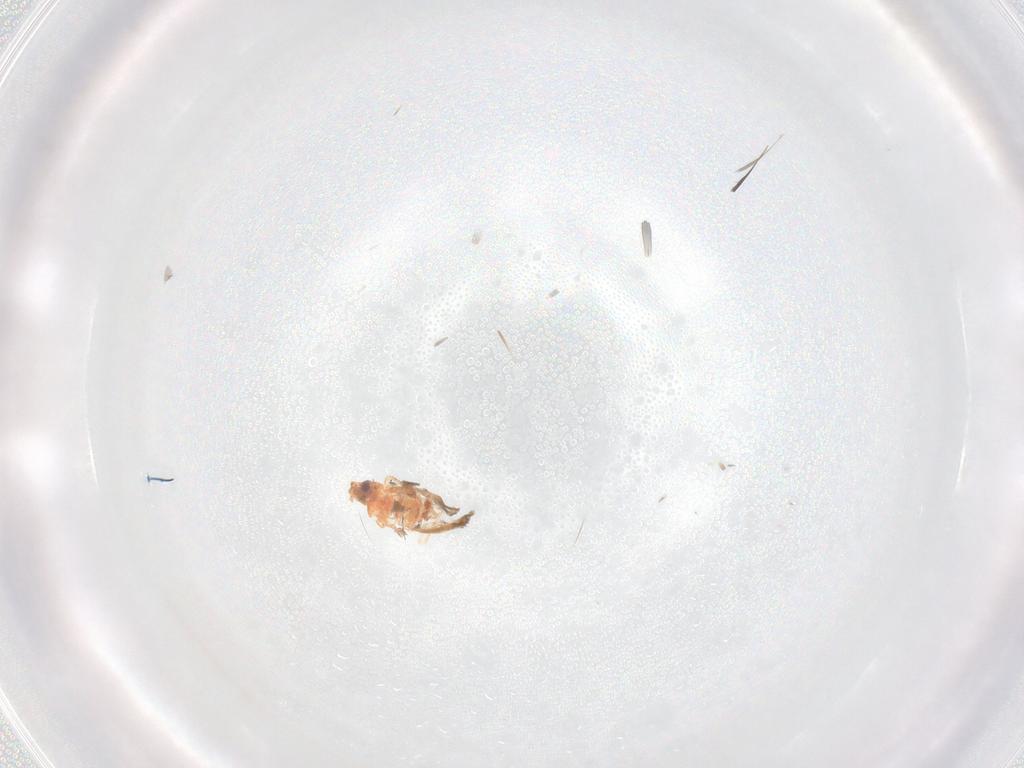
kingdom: Animalia
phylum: Arthropoda
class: Insecta
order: Hemiptera
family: Aleyrodidae
